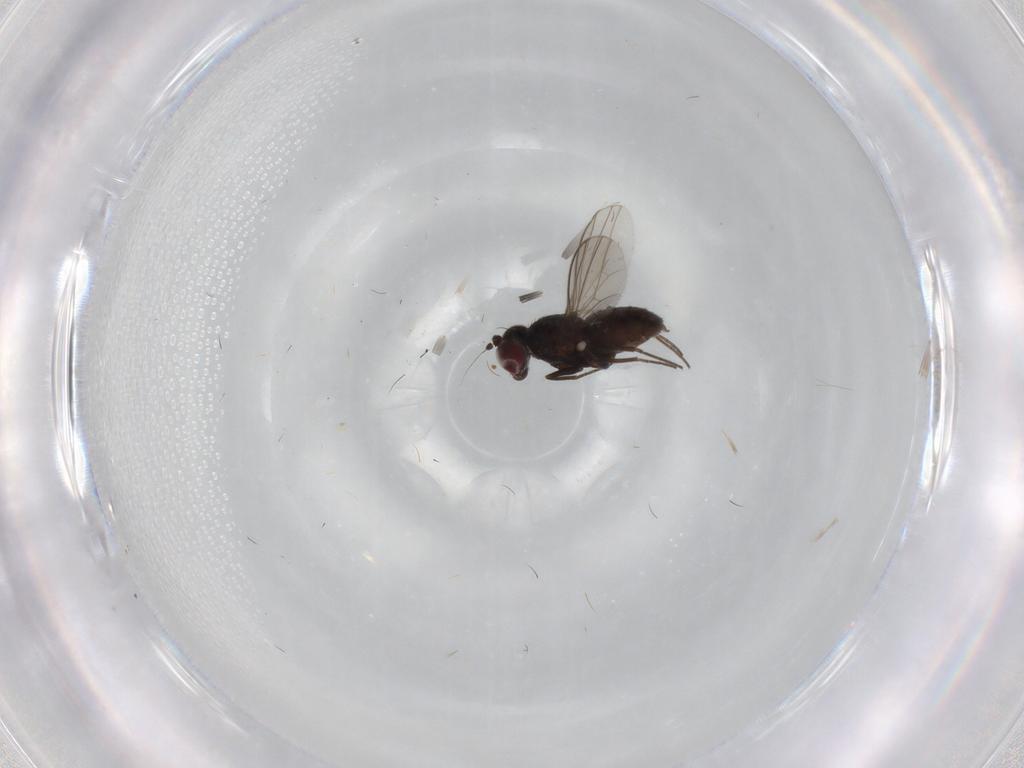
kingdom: Animalia
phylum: Arthropoda
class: Insecta
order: Diptera
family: Dolichopodidae
